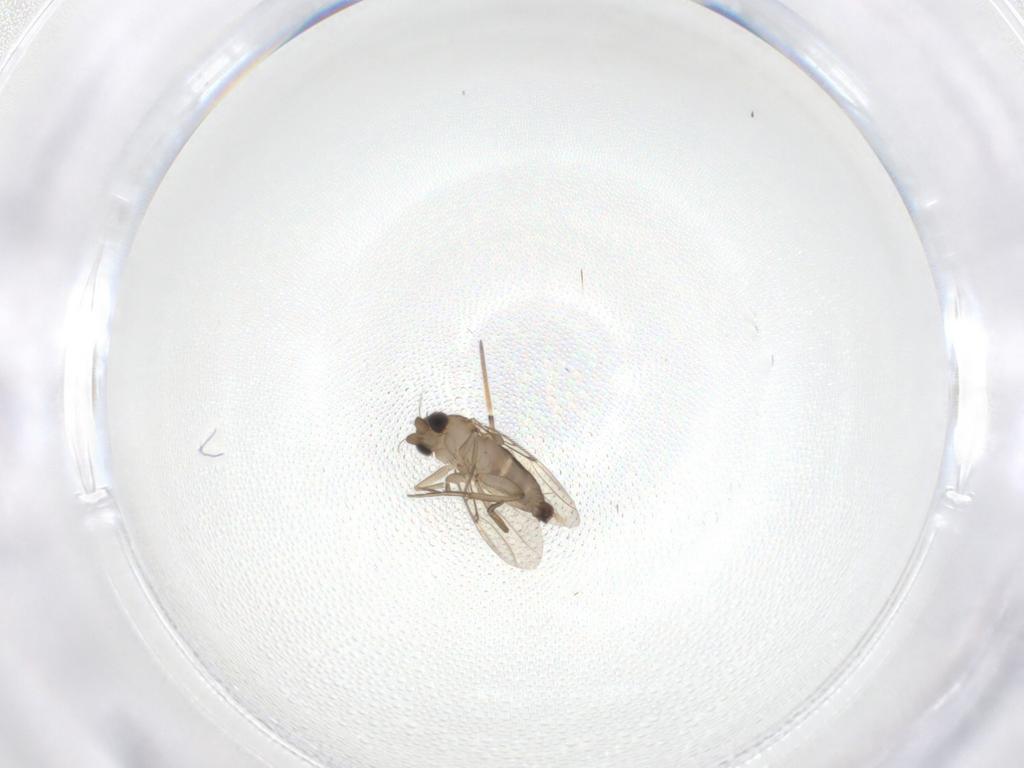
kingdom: Animalia
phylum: Arthropoda
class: Insecta
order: Diptera
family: Phoridae
